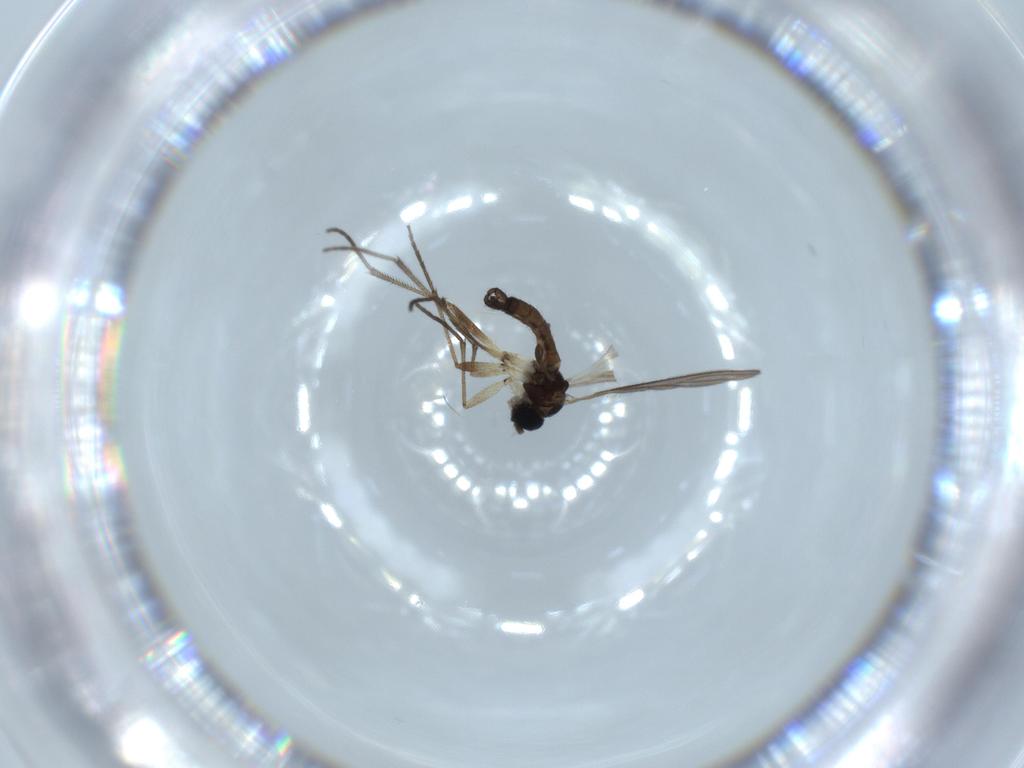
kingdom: Animalia
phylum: Arthropoda
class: Insecta
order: Diptera
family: Sciaridae
